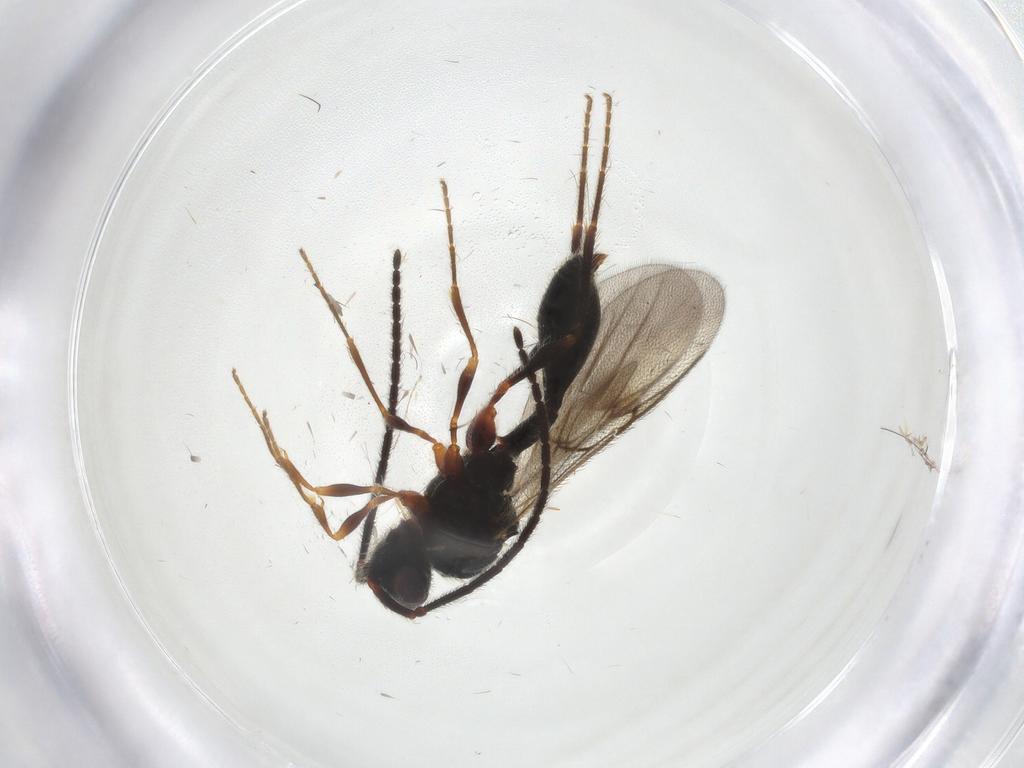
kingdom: Animalia
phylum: Arthropoda
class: Insecta
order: Hymenoptera
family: Diapriidae
